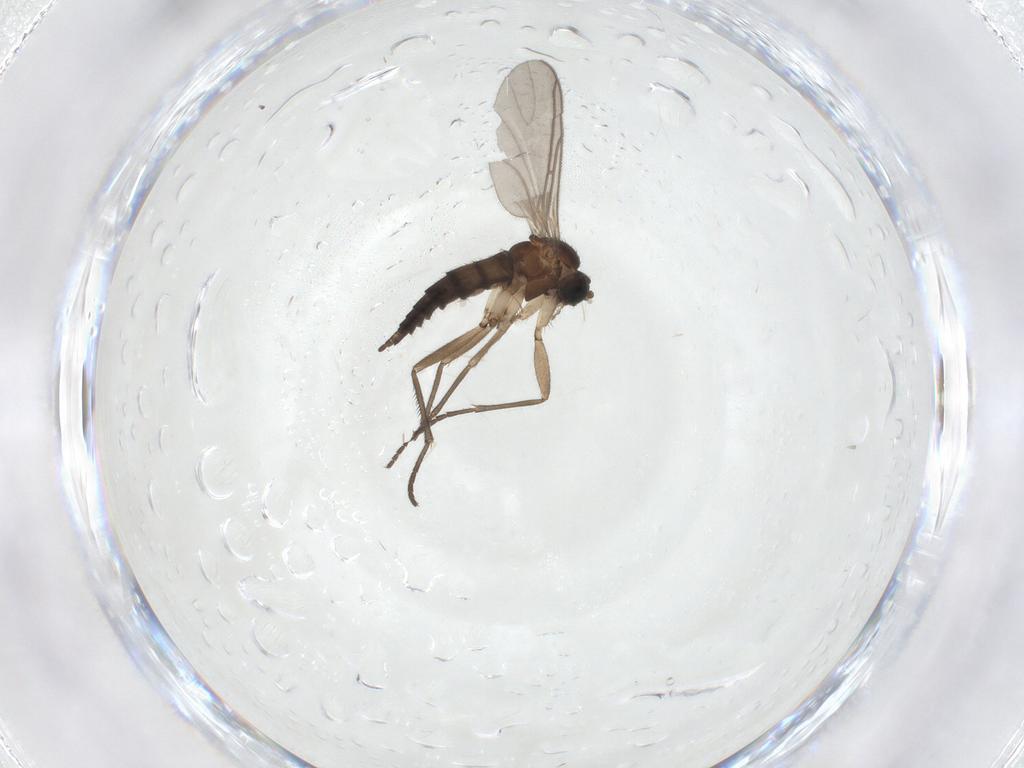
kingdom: Animalia
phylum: Arthropoda
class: Insecta
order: Diptera
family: Sciaridae
